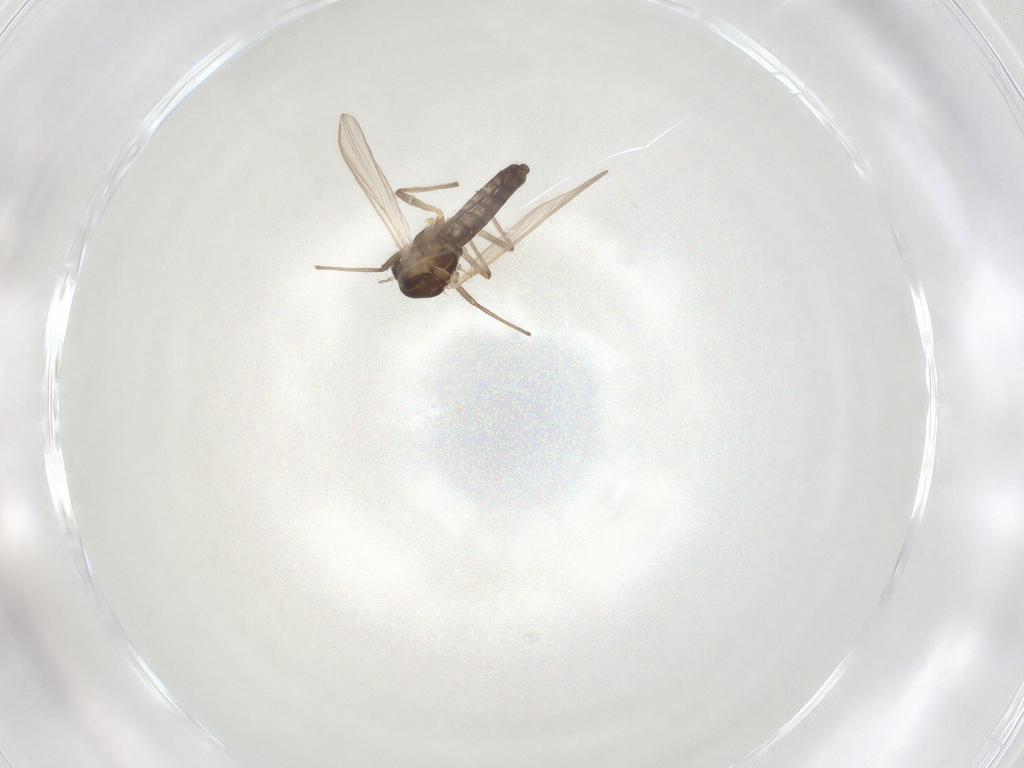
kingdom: Animalia
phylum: Arthropoda
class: Insecta
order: Diptera
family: Chironomidae
